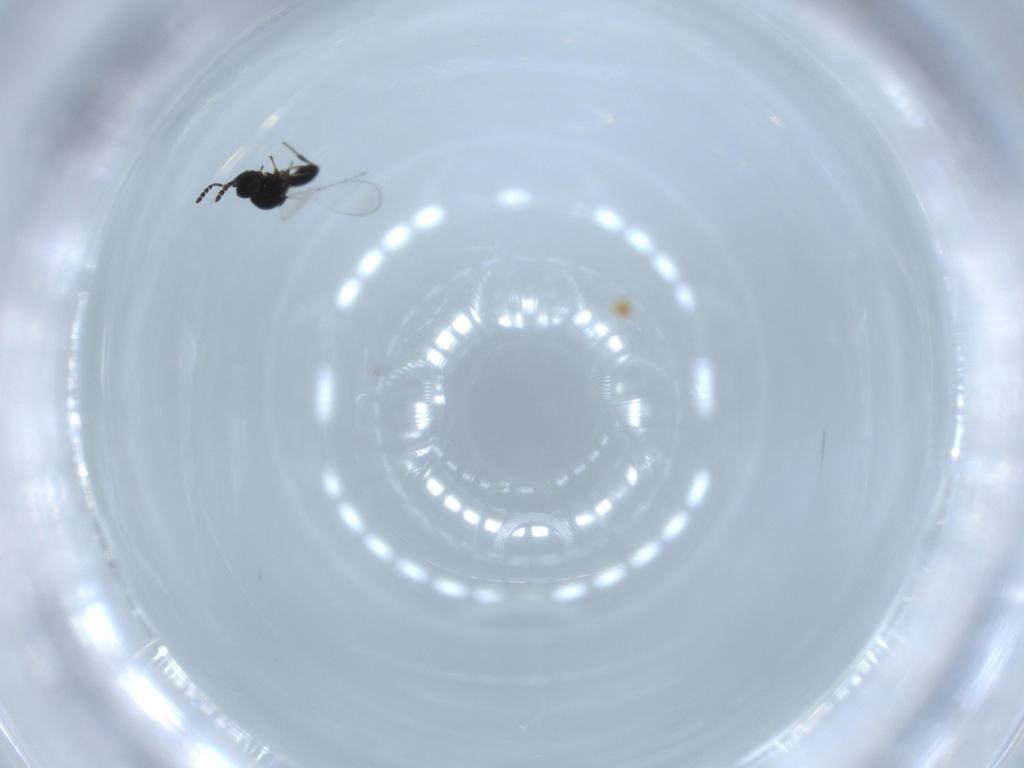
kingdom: Animalia
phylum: Arthropoda
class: Insecta
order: Hymenoptera
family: Platygastridae
